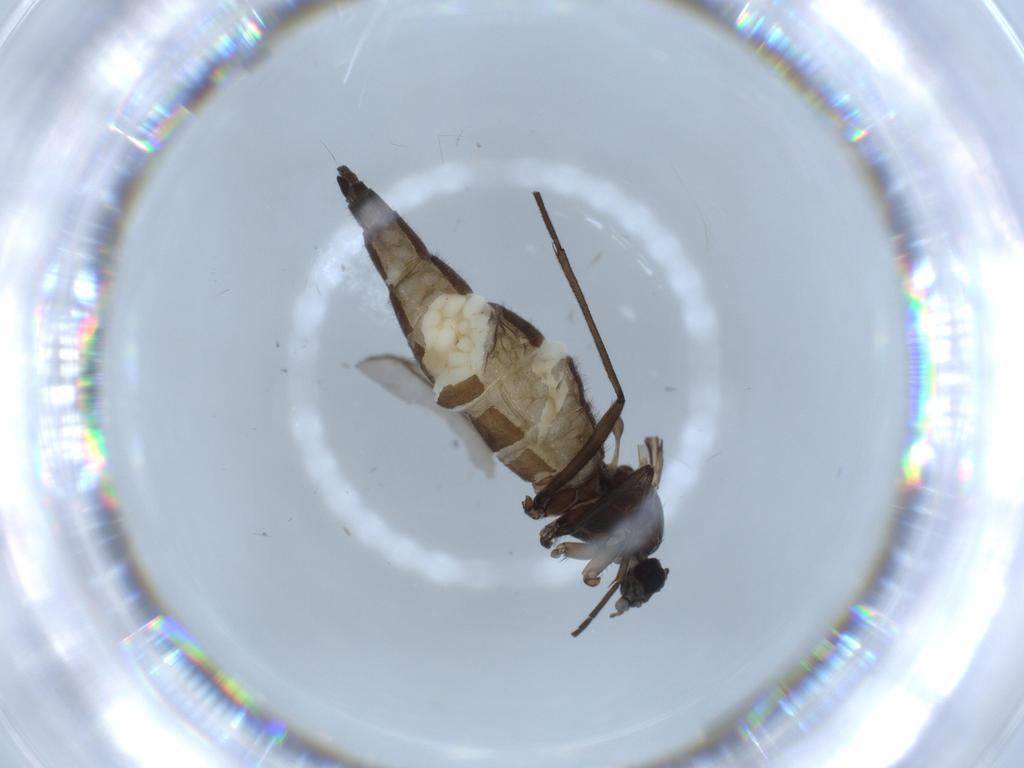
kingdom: Animalia
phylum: Arthropoda
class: Insecta
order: Diptera
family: Sciaridae
